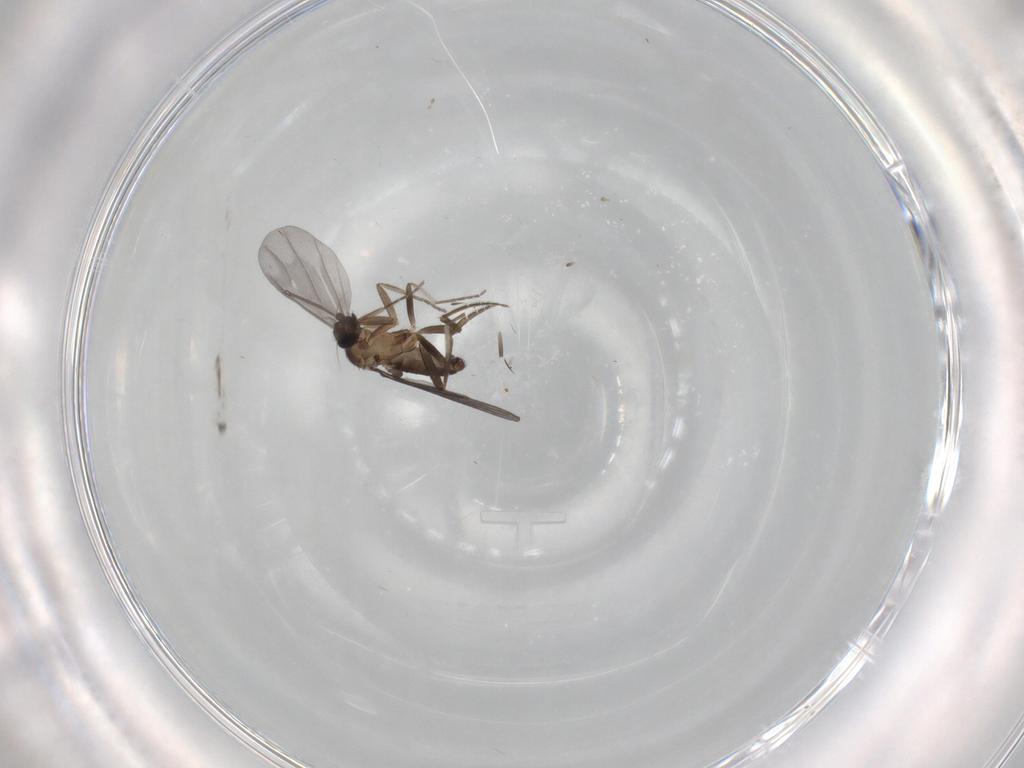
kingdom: Animalia
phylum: Arthropoda
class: Insecta
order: Diptera
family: Phoridae
